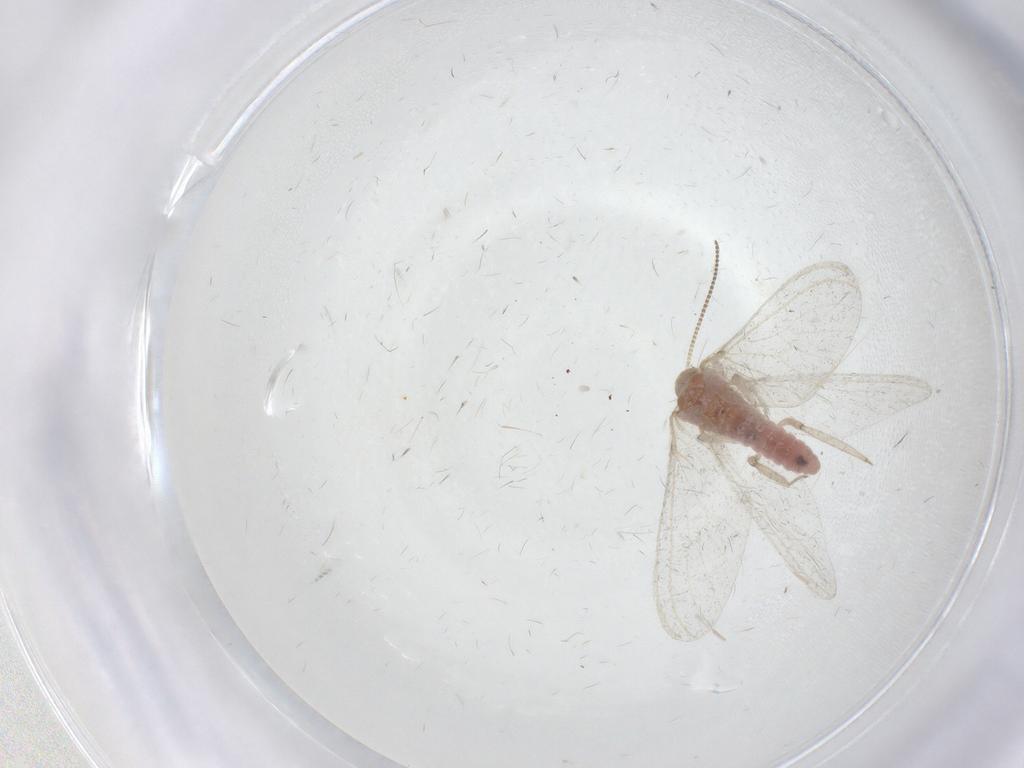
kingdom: Animalia
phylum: Arthropoda
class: Insecta
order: Neuroptera
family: Coniopterygidae
